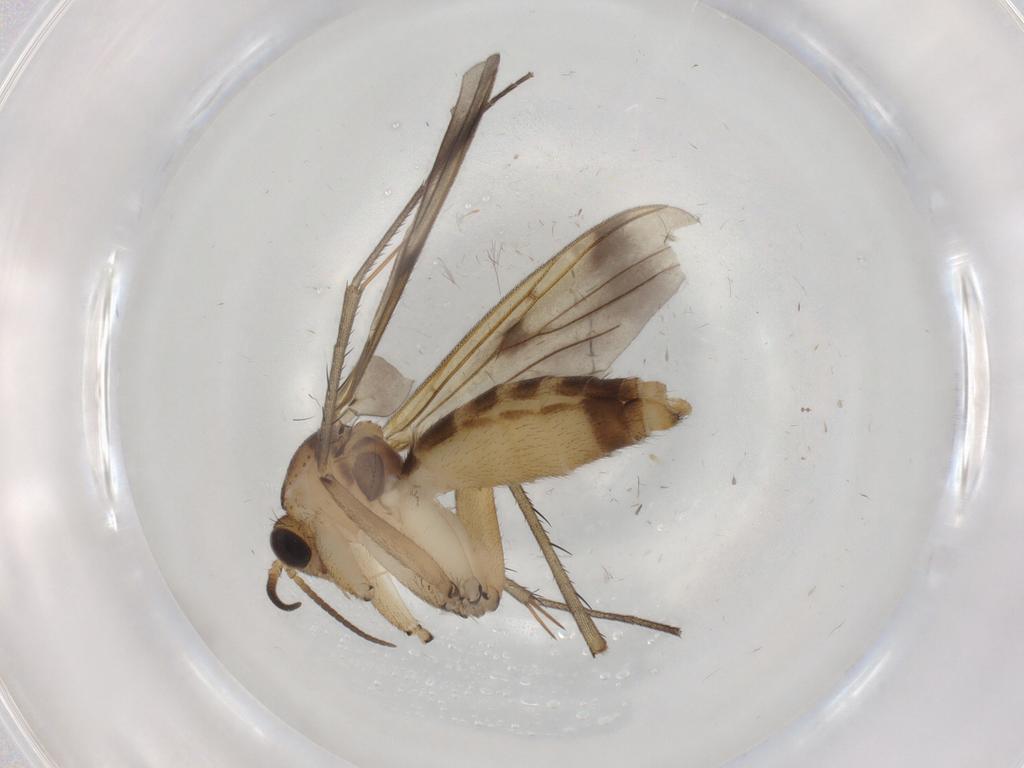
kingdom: Animalia
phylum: Arthropoda
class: Insecta
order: Diptera
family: Mycetophilidae
